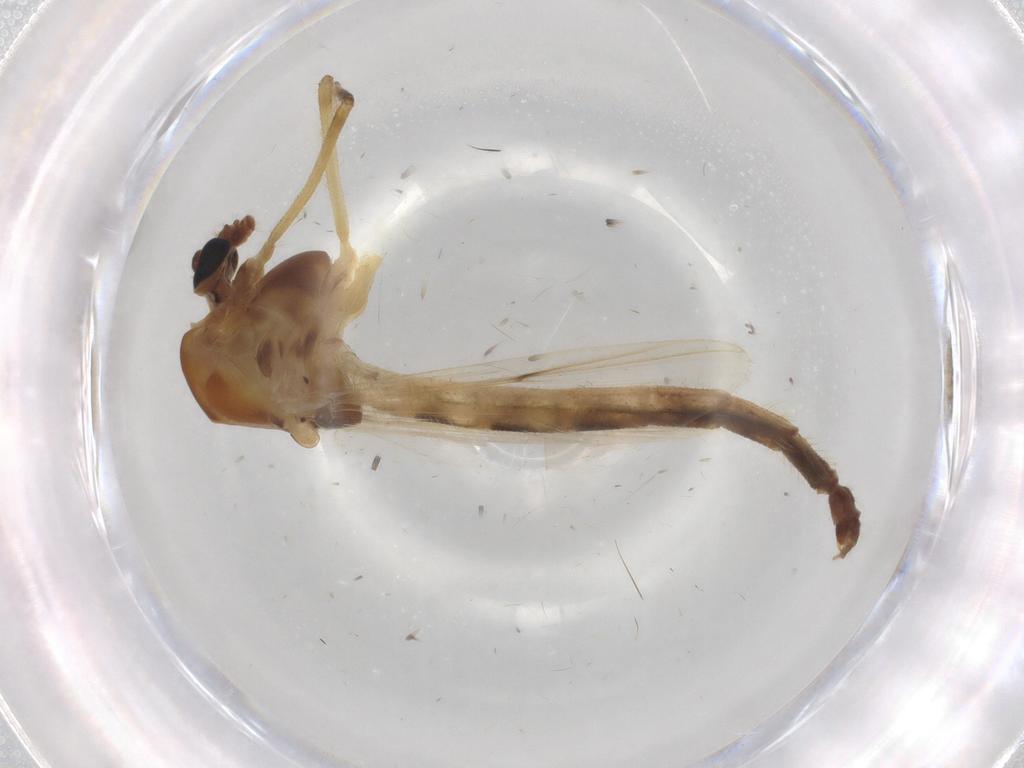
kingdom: Animalia
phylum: Arthropoda
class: Insecta
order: Diptera
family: Chironomidae
